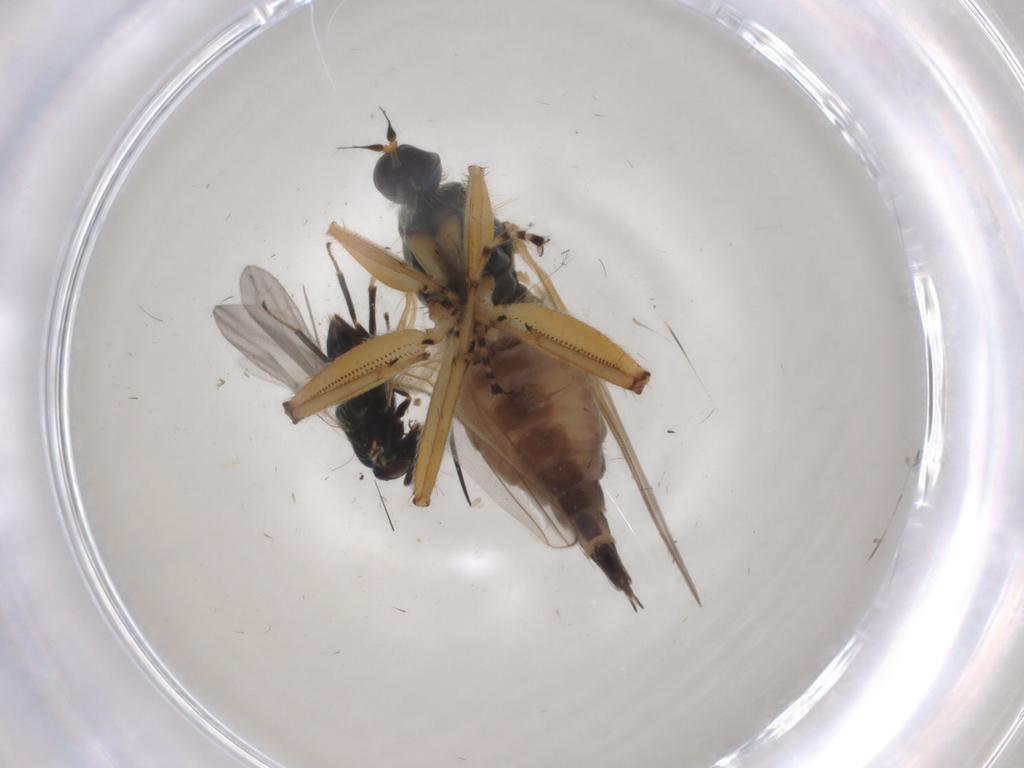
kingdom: Animalia
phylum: Arthropoda
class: Insecta
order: Diptera
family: Hybotidae
